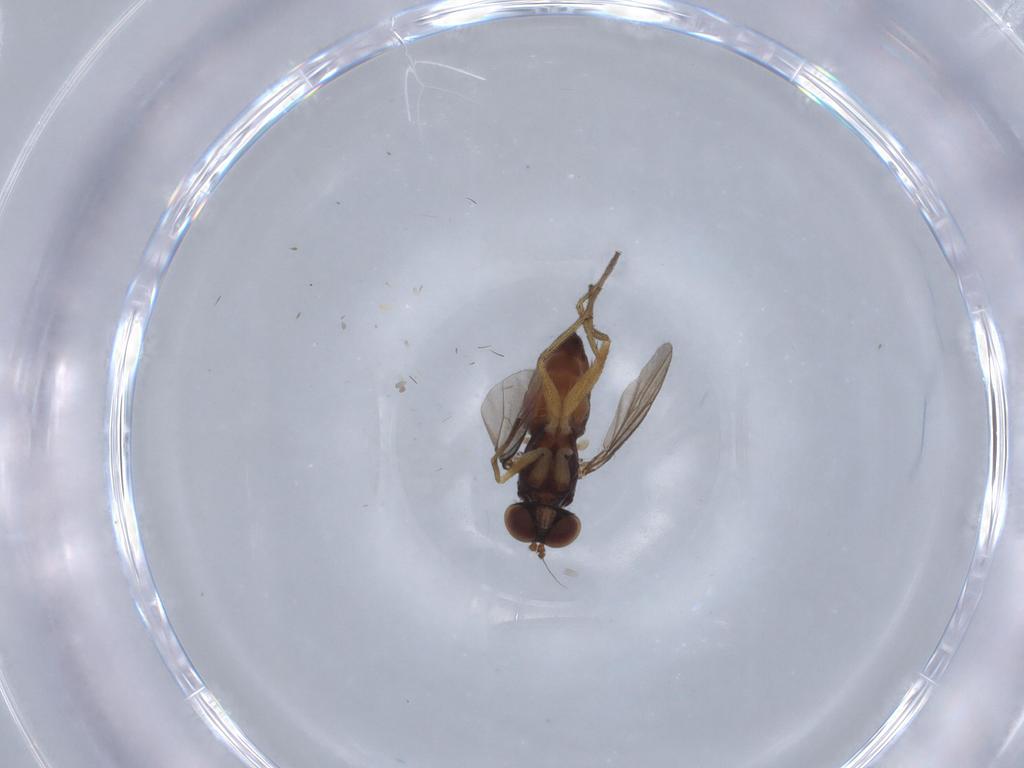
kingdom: Animalia
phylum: Arthropoda
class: Insecta
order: Diptera
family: Dolichopodidae
